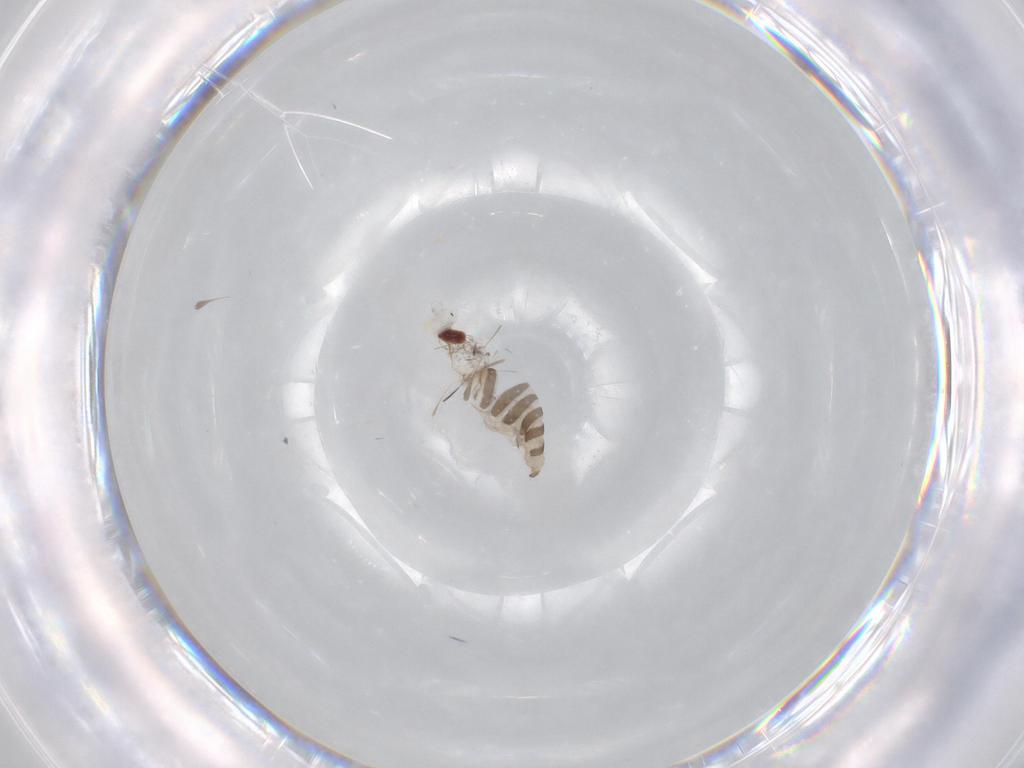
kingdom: Animalia
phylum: Arthropoda
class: Insecta
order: Diptera
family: Cecidomyiidae
